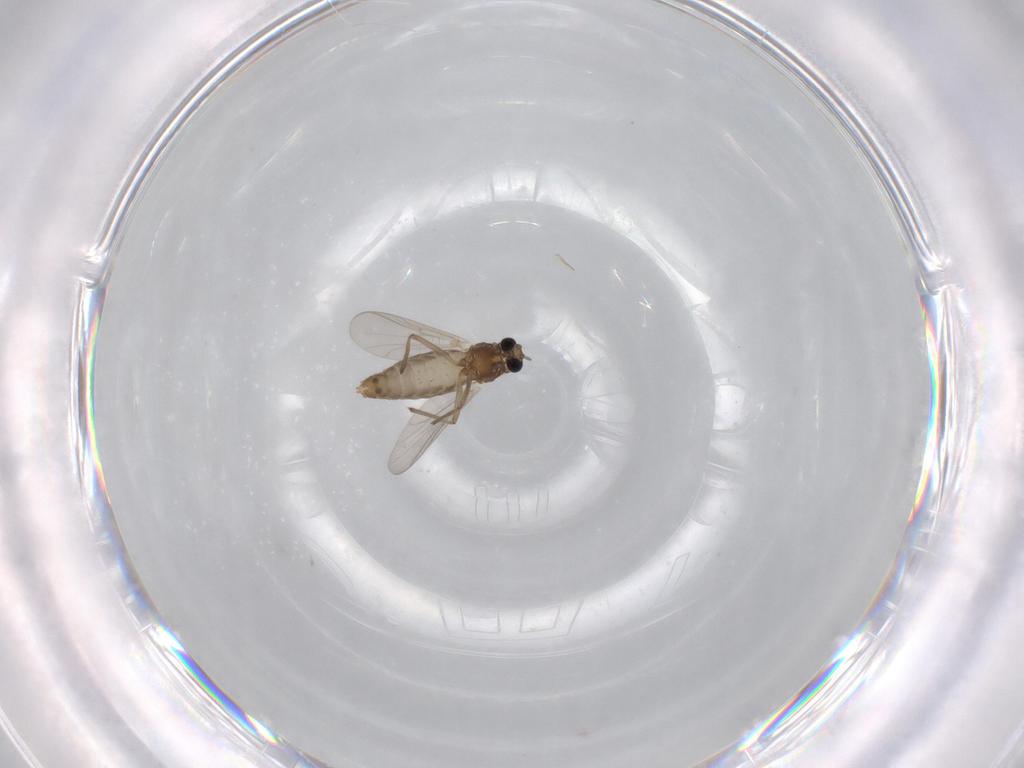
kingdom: Animalia
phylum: Arthropoda
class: Insecta
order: Diptera
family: Chironomidae
